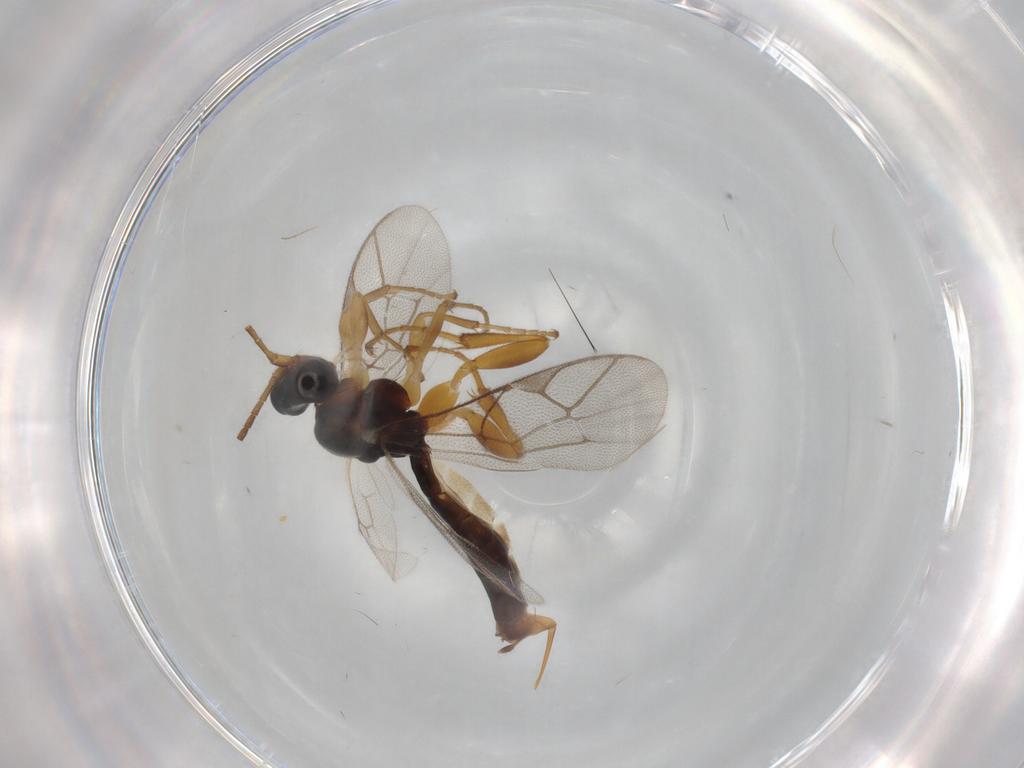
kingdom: Animalia
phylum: Arthropoda
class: Insecta
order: Hymenoptera
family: Ichneumonidae
